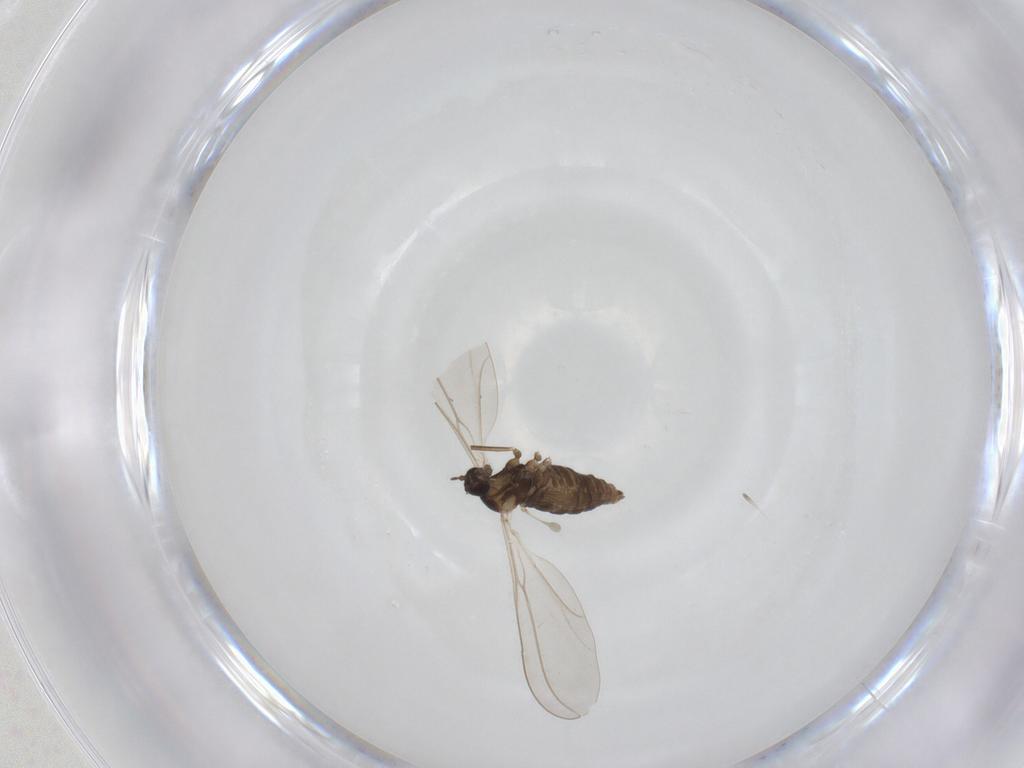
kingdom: Animalia
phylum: Arthropoda
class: Insecta
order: Diptera
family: Cecidomyiidae
